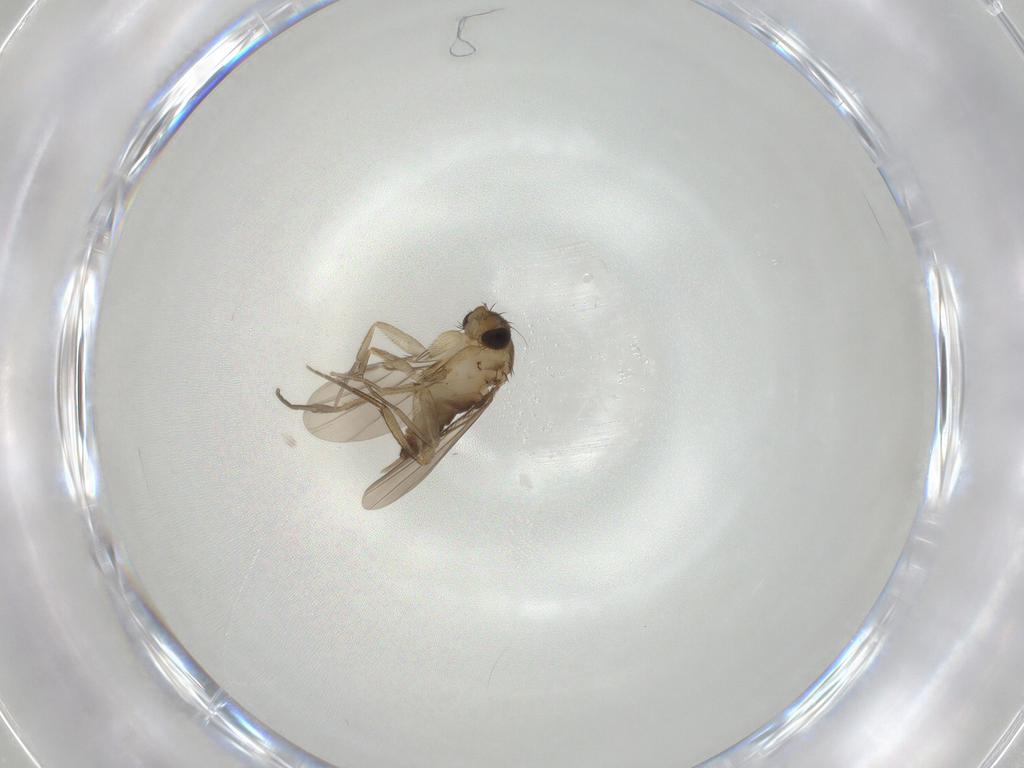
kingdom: Animalia
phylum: Arthropoda
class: Insecta
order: Diptera
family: Phoridae
